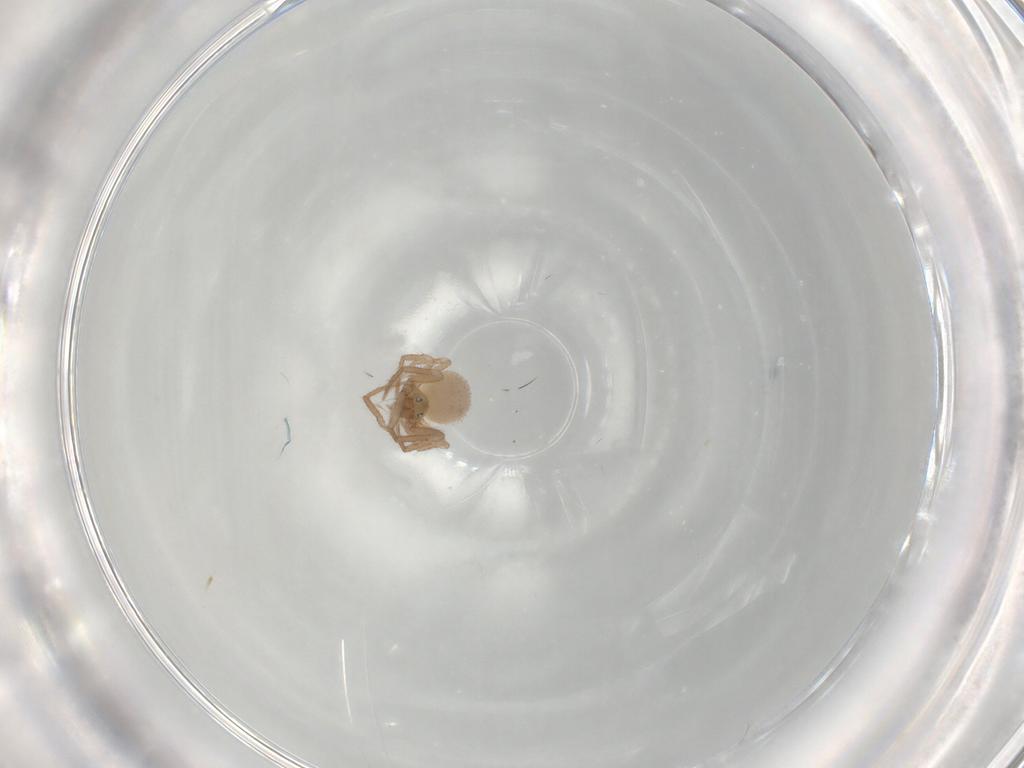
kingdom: Animalia
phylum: Arthropoda
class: Arachnida
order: Araneae
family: Symphytognathidae
